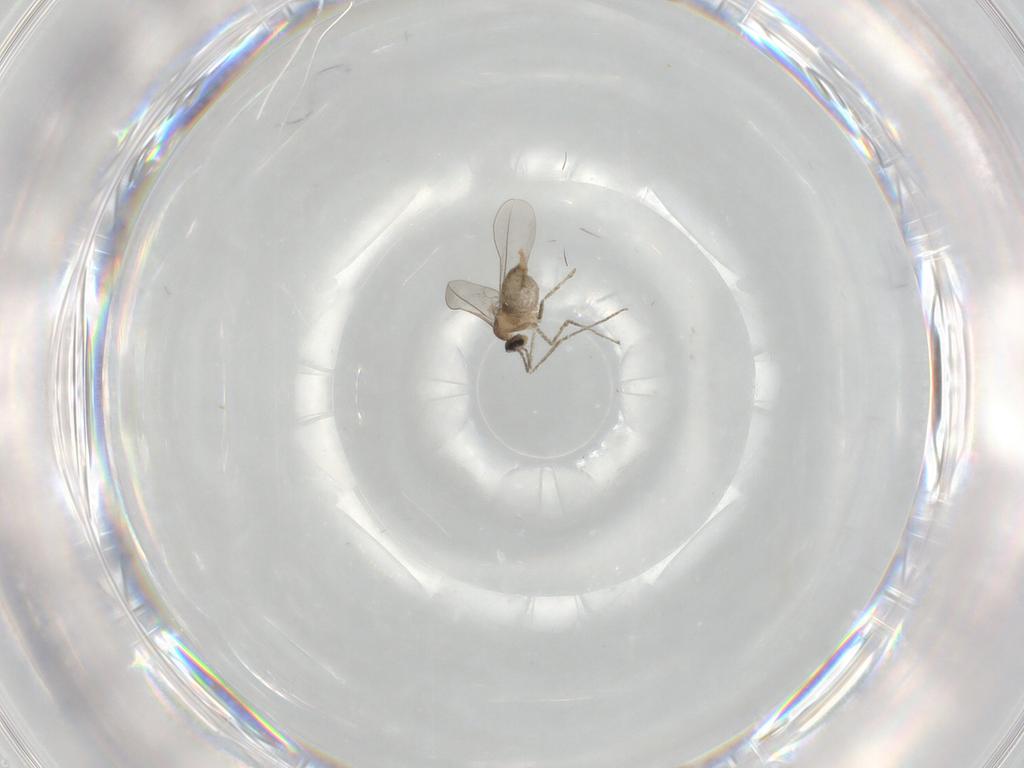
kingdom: Animalia
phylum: Arthropoda
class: Insecta
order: Diptera
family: Cecidomyiidae
